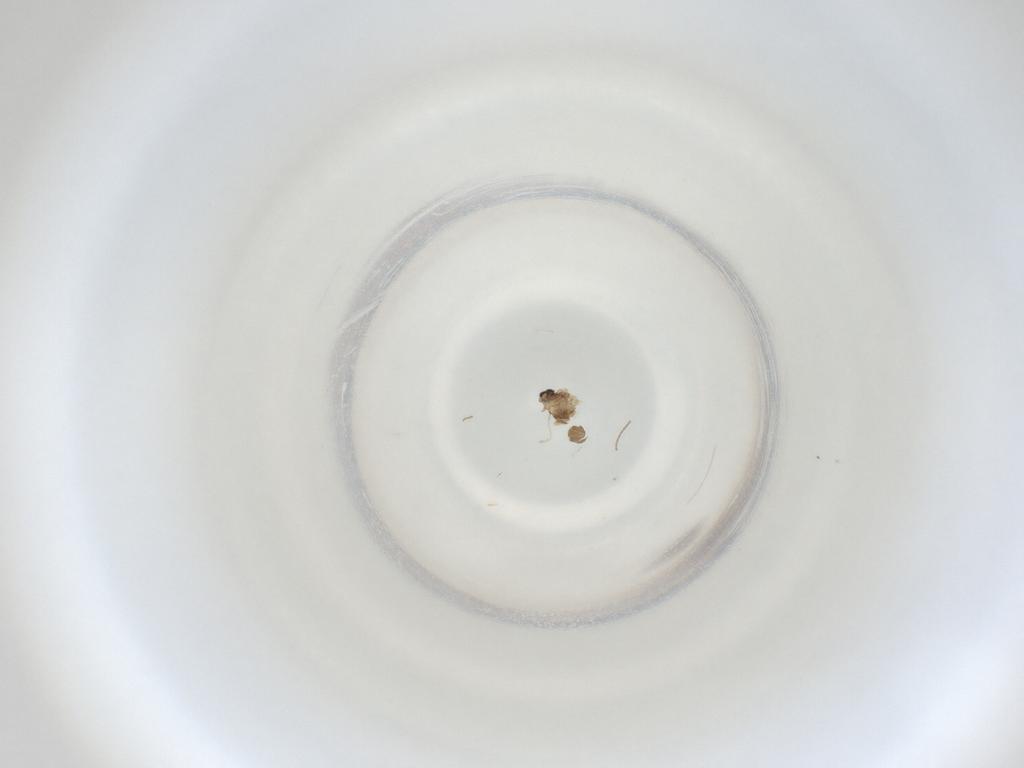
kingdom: Animalia
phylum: Arthropoda
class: Insecta
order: Diptera
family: Cecidomyiidae
